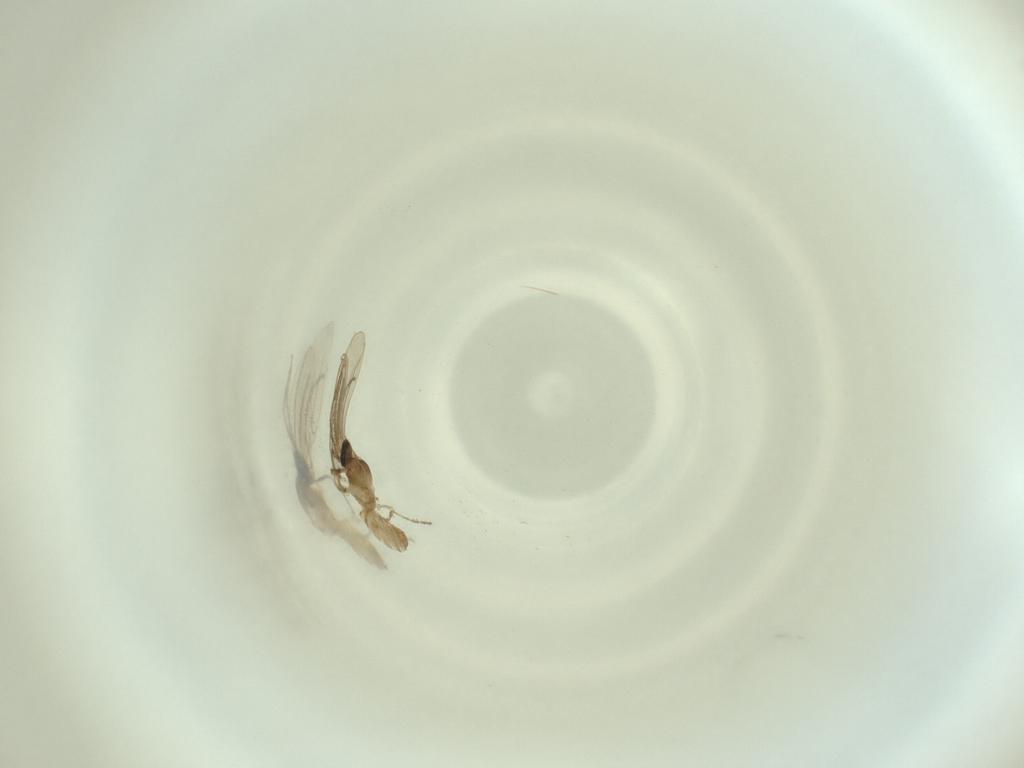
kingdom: Animalia
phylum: Arthropoda
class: Insecta
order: Diptera
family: Cecidomyiidae
